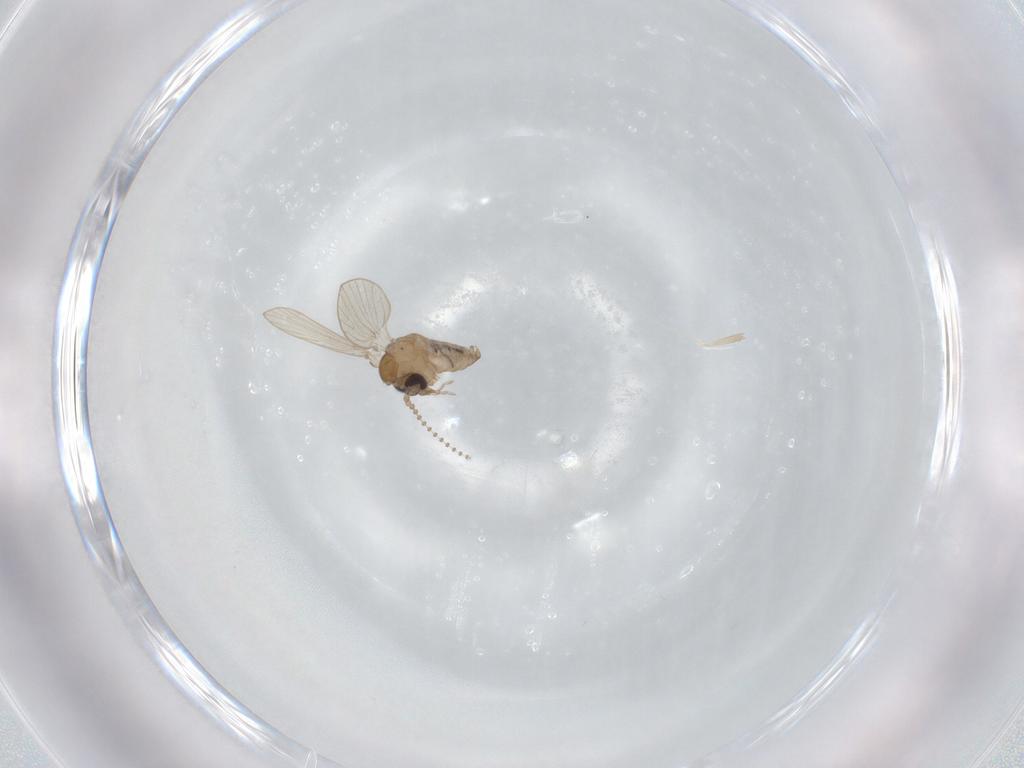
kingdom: Animalia
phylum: Arthropoda
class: Insecta
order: Diptera
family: Psychodidae
